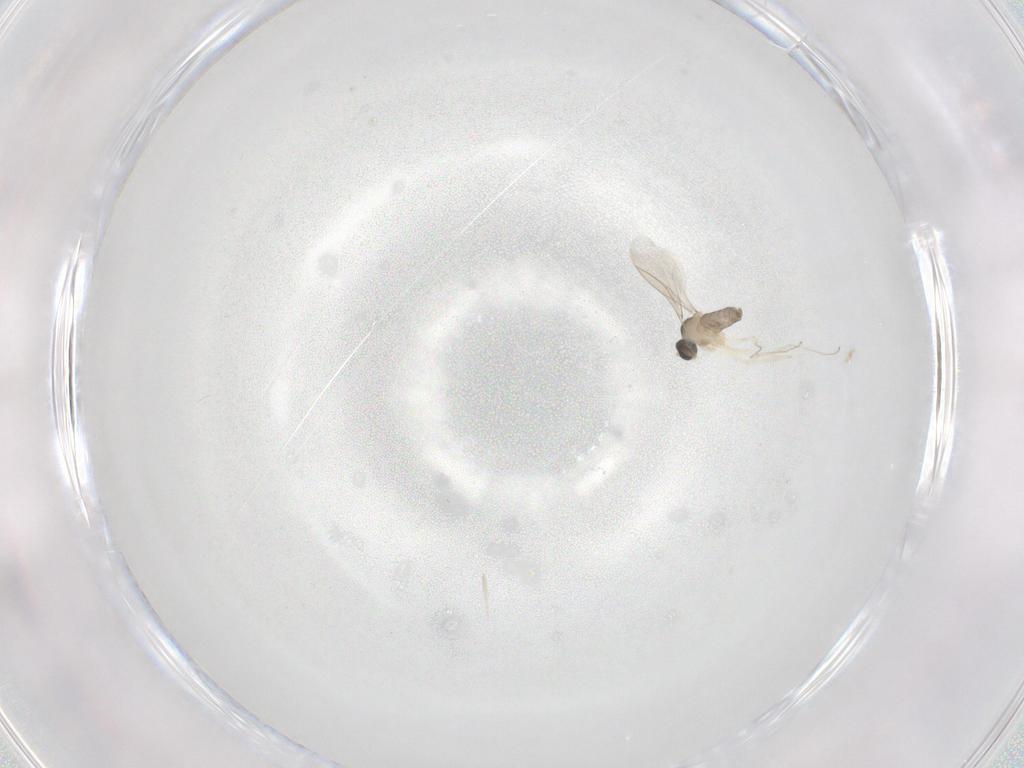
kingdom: Animalia
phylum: Arthropoda
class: Insecta
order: Diptera
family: Cecidomyiidae
